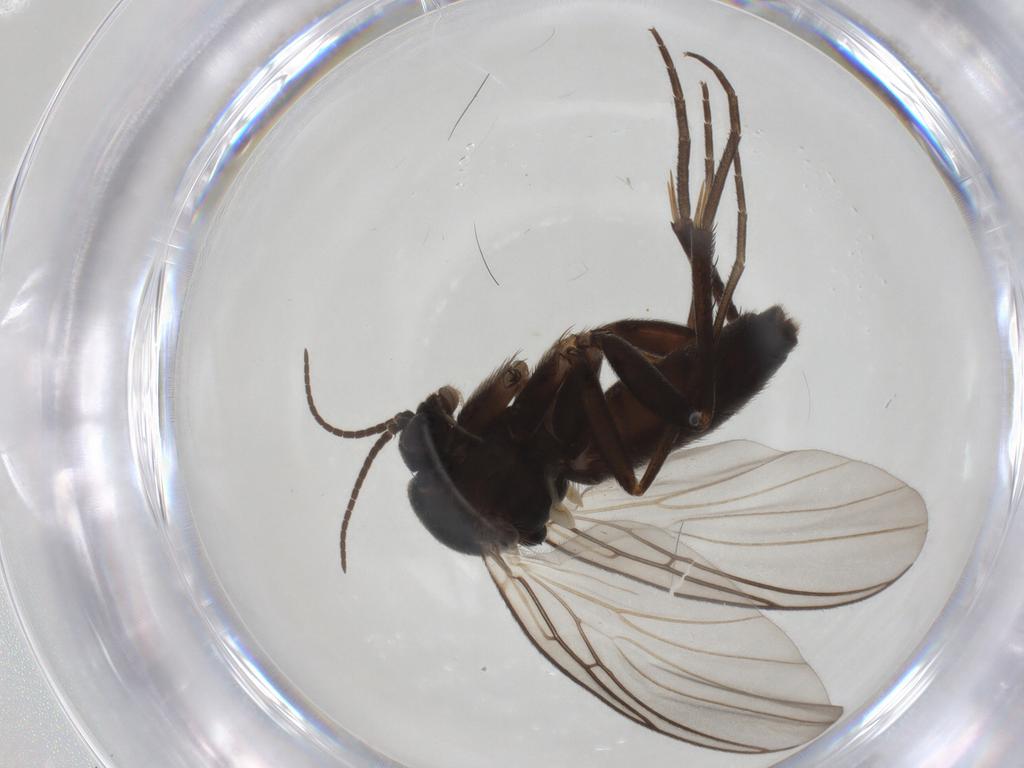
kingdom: Animalia
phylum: Arthropoda
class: Insecta
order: Diptera
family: Mycetophilidae
